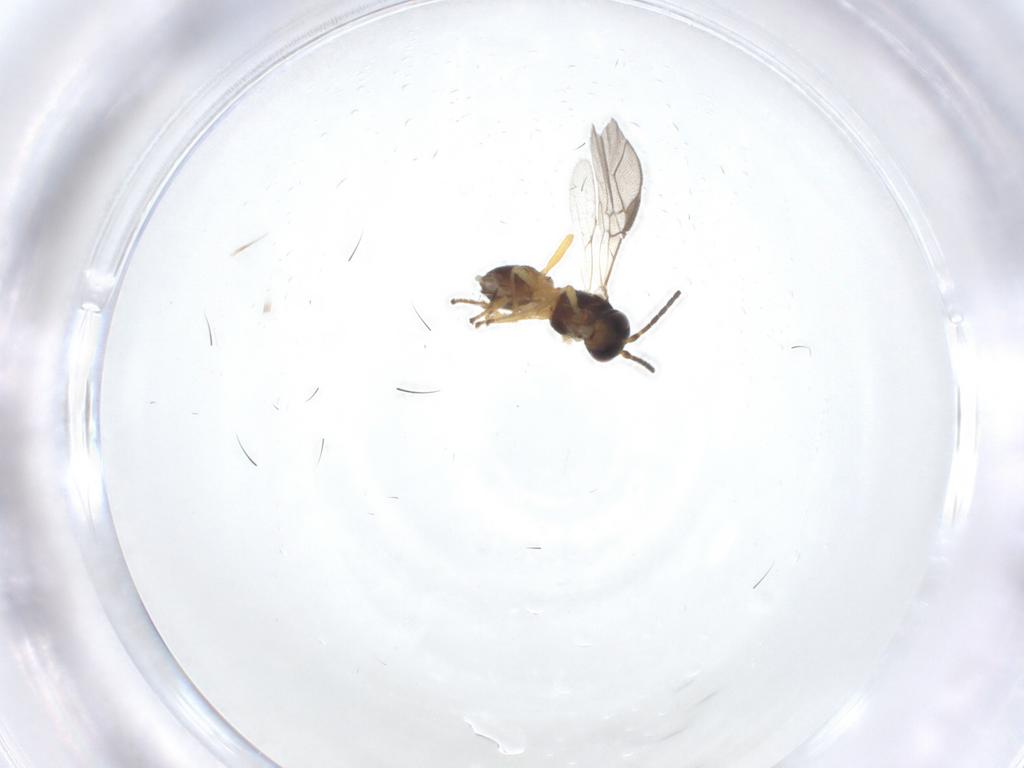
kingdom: Animalia
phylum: Arthropoda
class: Insecta
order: Hymenoptera
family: Braconidae
